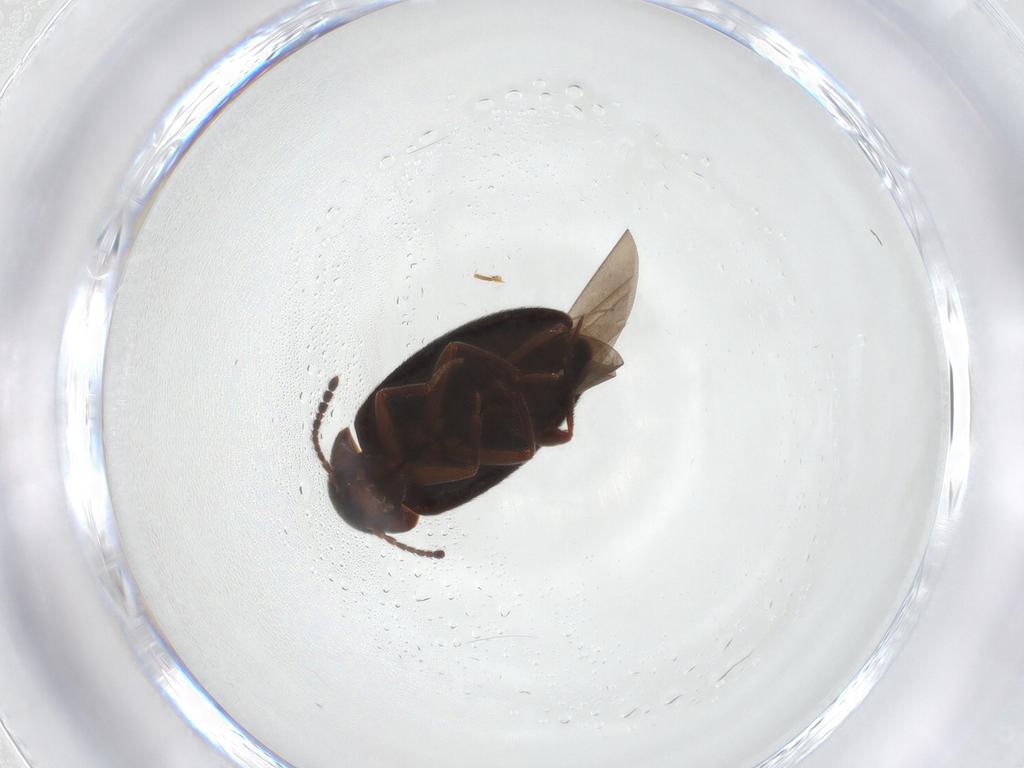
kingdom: Animalia
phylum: Arthropoda
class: Insecta
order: Coleoptera
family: Leiodidae
